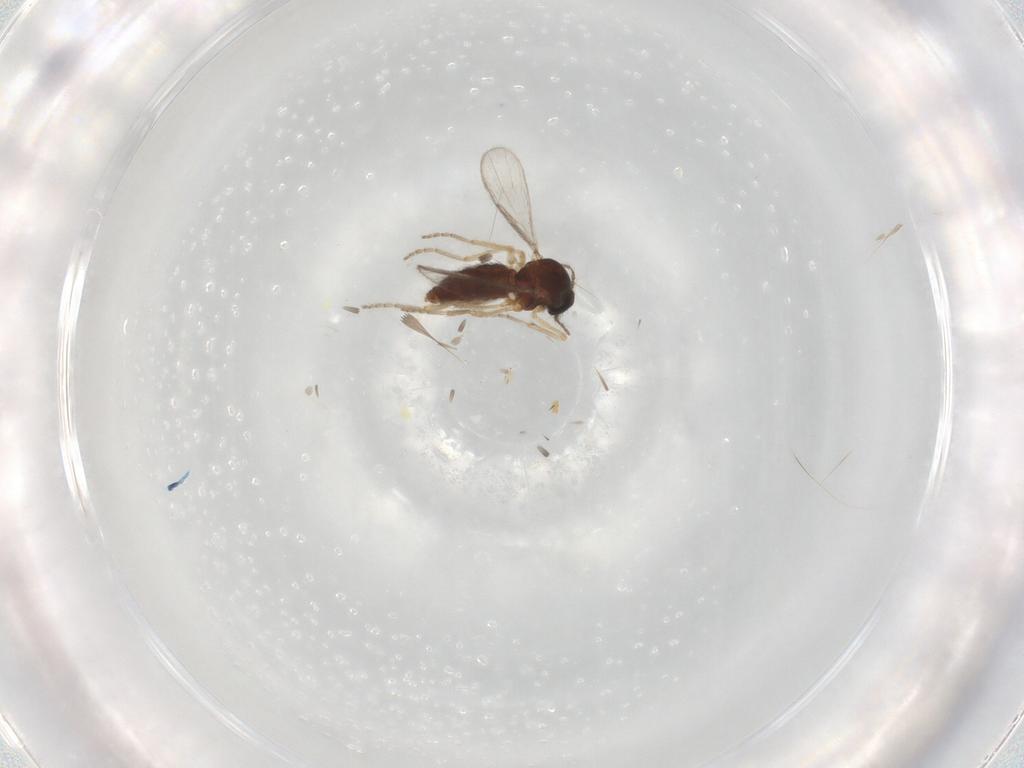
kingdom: Animalia
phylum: Arthropoda
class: Insecta
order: Diptera
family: Ceratopogonidae
